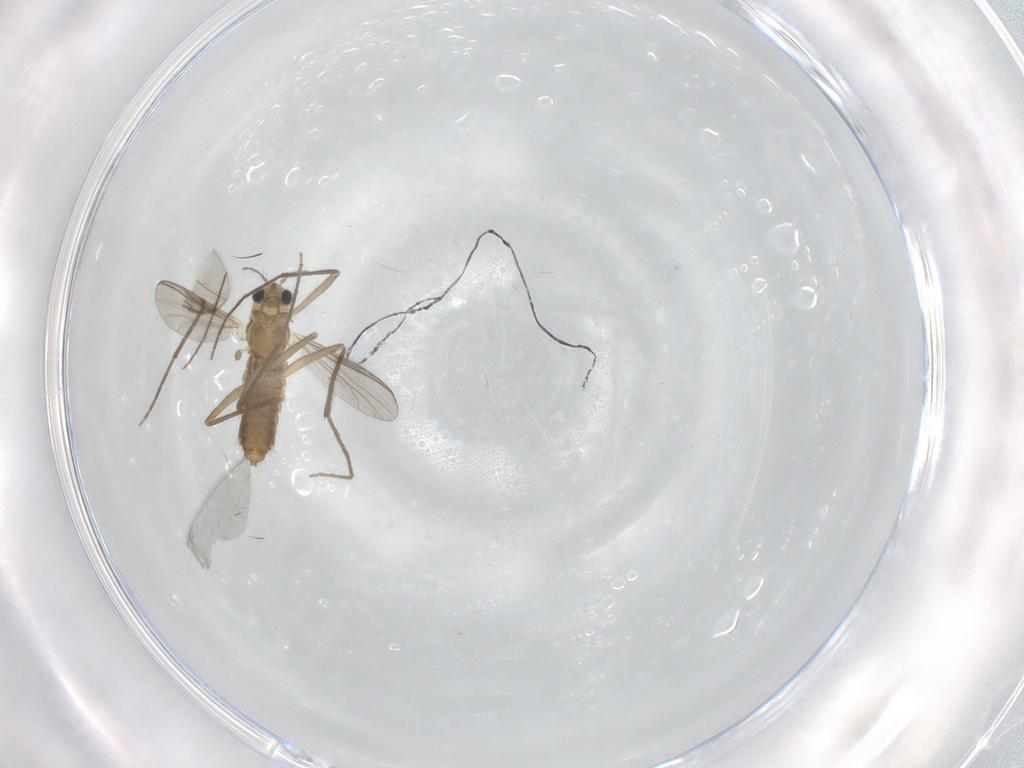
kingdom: Animalia
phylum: Arthropoda
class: Insecta
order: Diptera
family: Chironomidae
